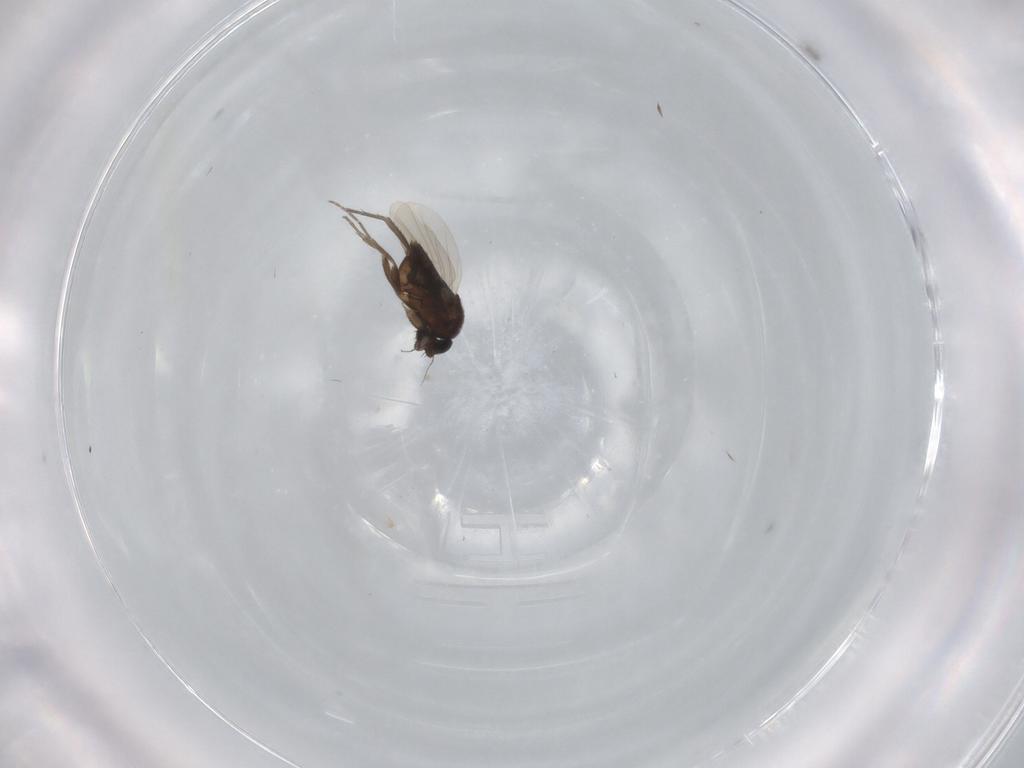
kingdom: Animalia
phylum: Arthropoda
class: Insecta
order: Diptera
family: Phoridae
